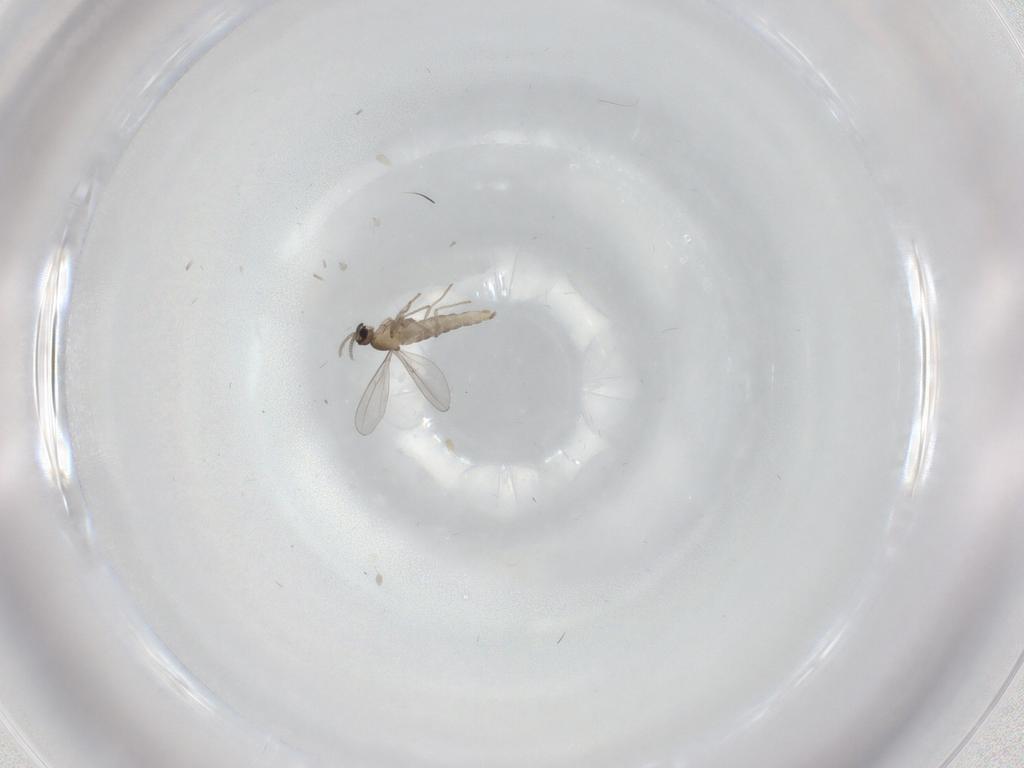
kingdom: Animalia
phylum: Arthropoda
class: Insecta
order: Diptera
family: Cecidomyiidae
